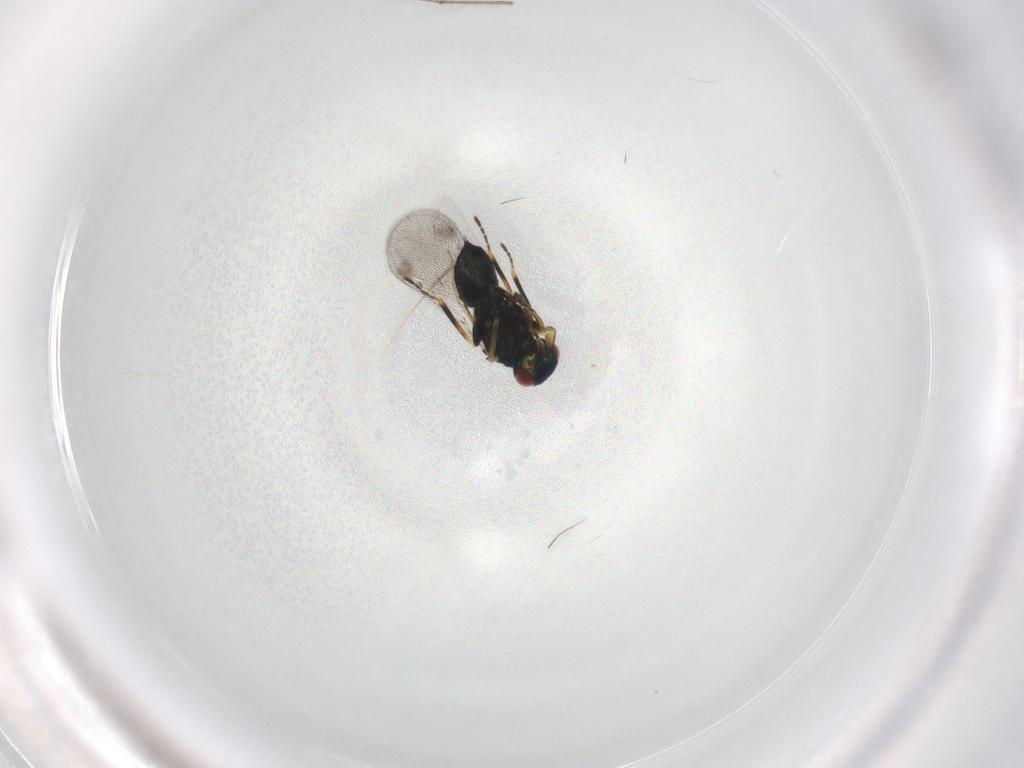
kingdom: Animalia
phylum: Arthropoda
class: Insecta
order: Hymenoptera
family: Eulophidae
